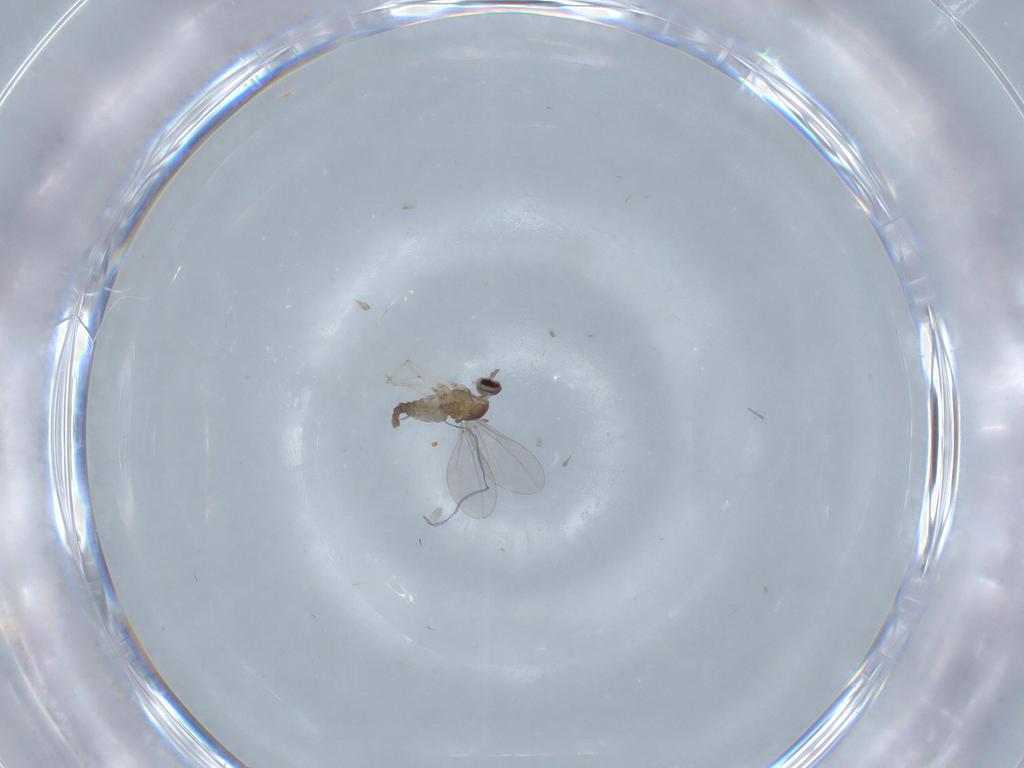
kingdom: Animalia
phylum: Arthropoda
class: Insecta
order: Diptera
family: Cecidomyiidae
